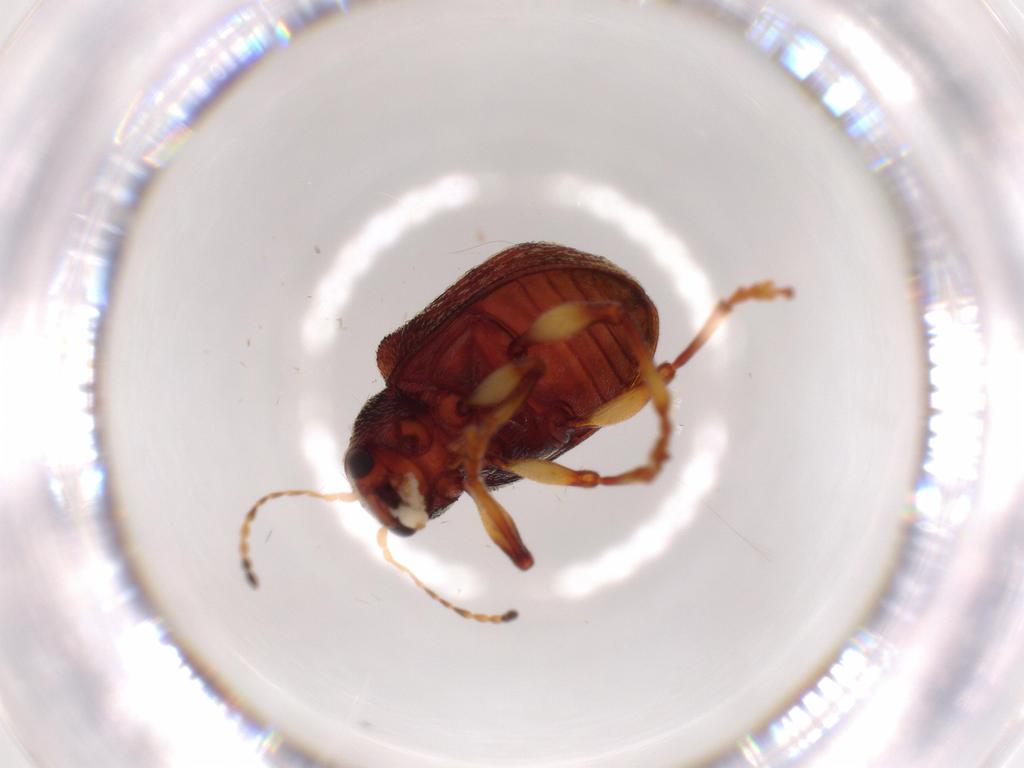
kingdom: Animalia
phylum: Arthropoda
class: Insecta
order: Coleoptera
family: Chrysomelidae
